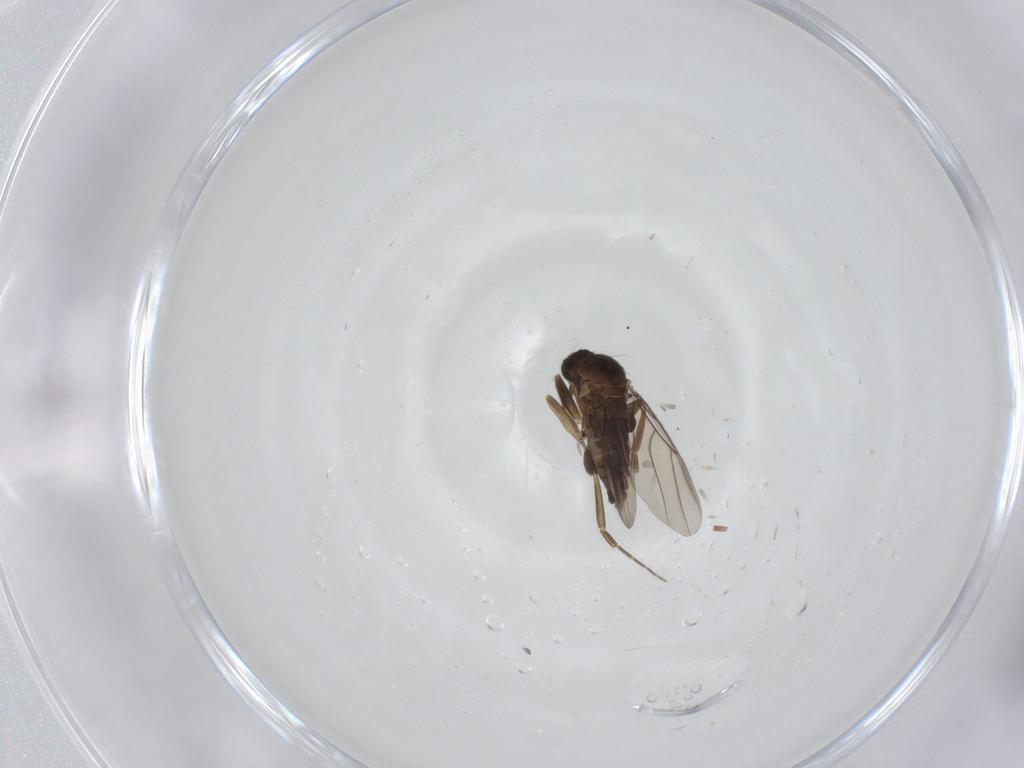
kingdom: Animalia
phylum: Arthropoda
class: Insecta
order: Diptera
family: Chironomidae
